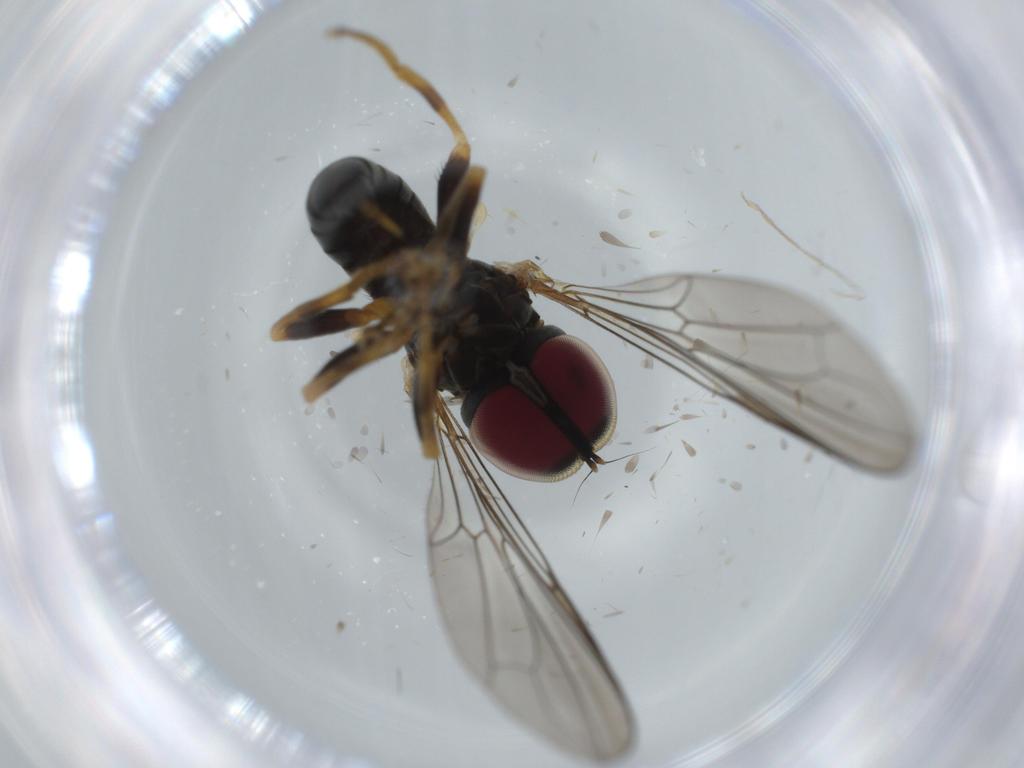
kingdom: Animalia
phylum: Arthropoda
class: Insecta
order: Diptera
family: Pipunculidae
